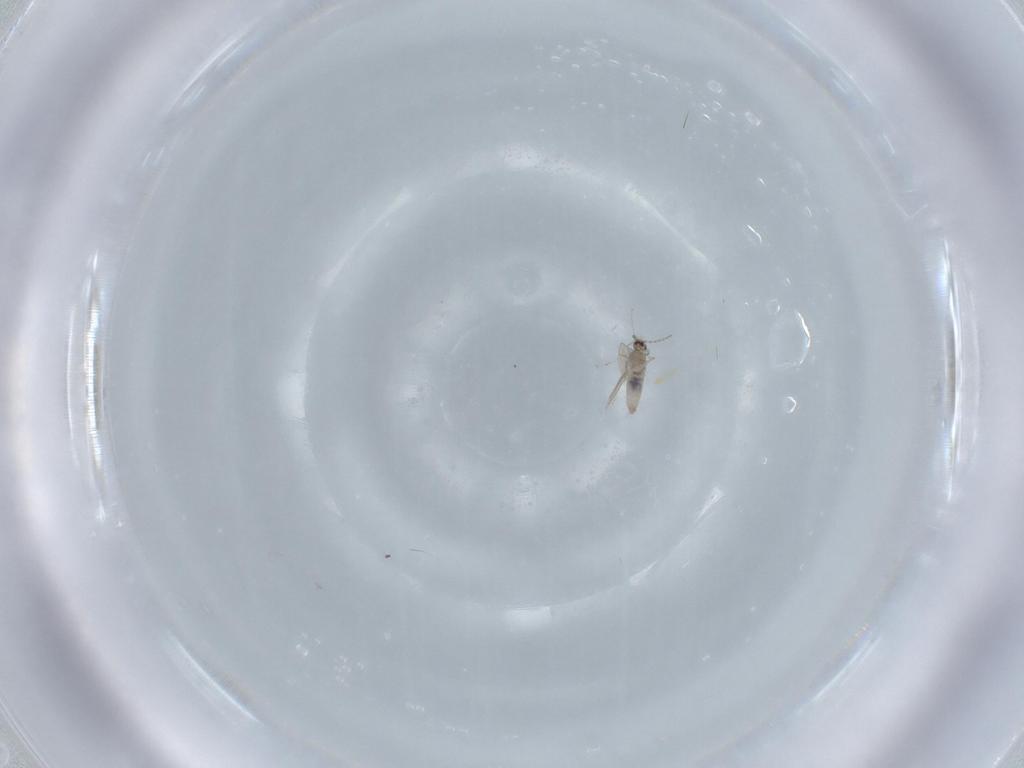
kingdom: Animalia
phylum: Arthropoda
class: Insecta
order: Diptera
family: Cecidomyiidae
